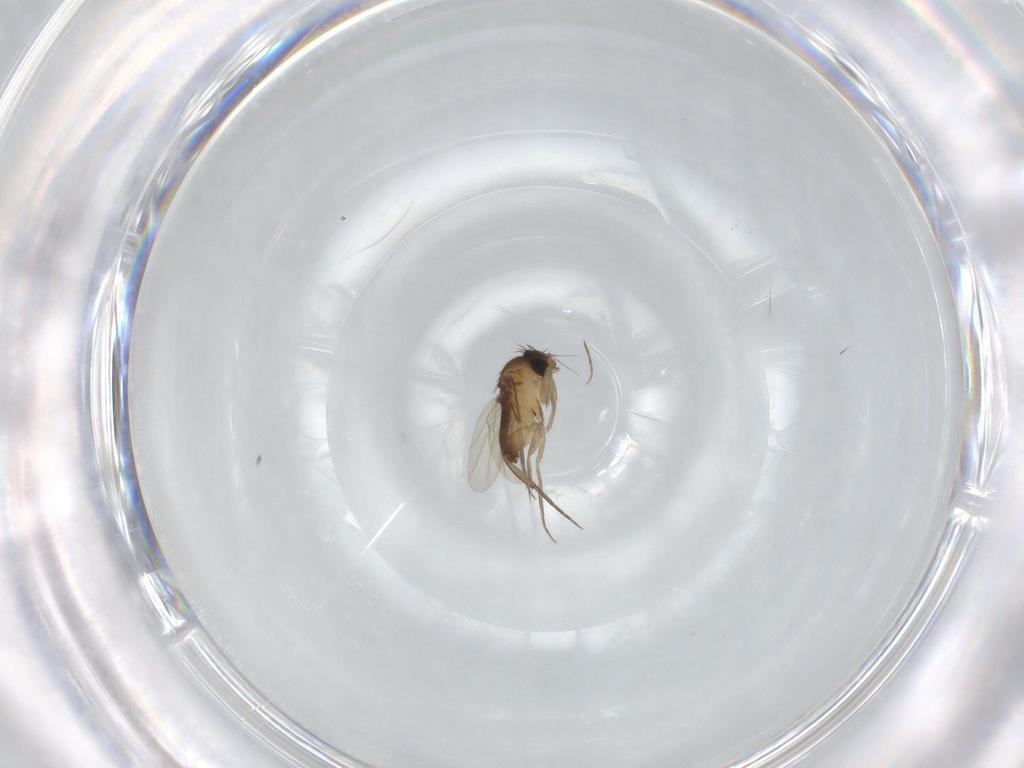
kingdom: Animalia
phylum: Arthropoda
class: Insecta
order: Diptera
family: Phoridae
